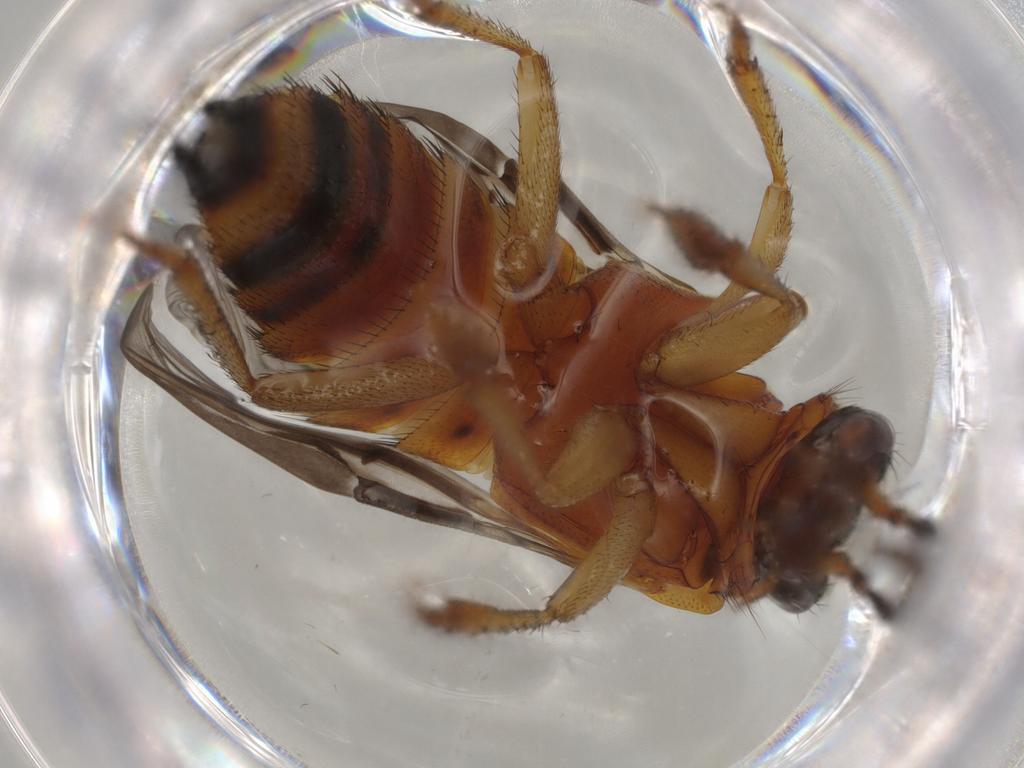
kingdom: Animalia
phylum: Arthropoda
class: Insecta
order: Coleoptera
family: Staphylinidae
